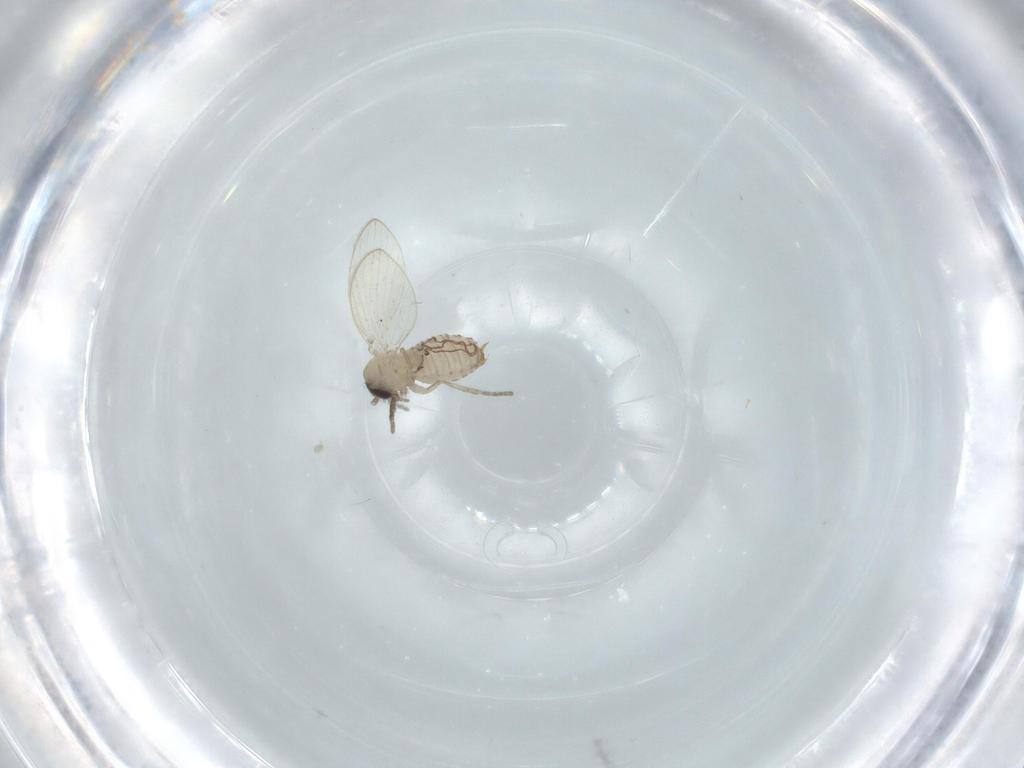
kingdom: Animalia
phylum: Arthropoda
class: Insecta
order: Diptera
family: Psychodidae
